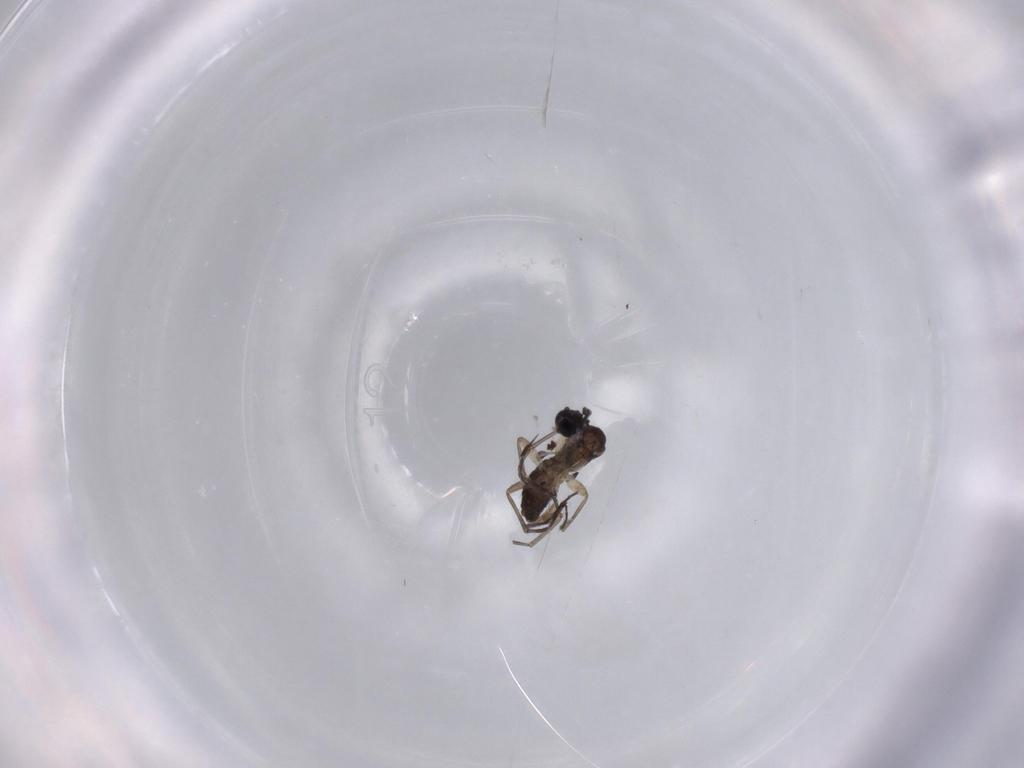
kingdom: Animalia
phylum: Arthropoda
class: Insecta
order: Diptera
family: Sciaridae
